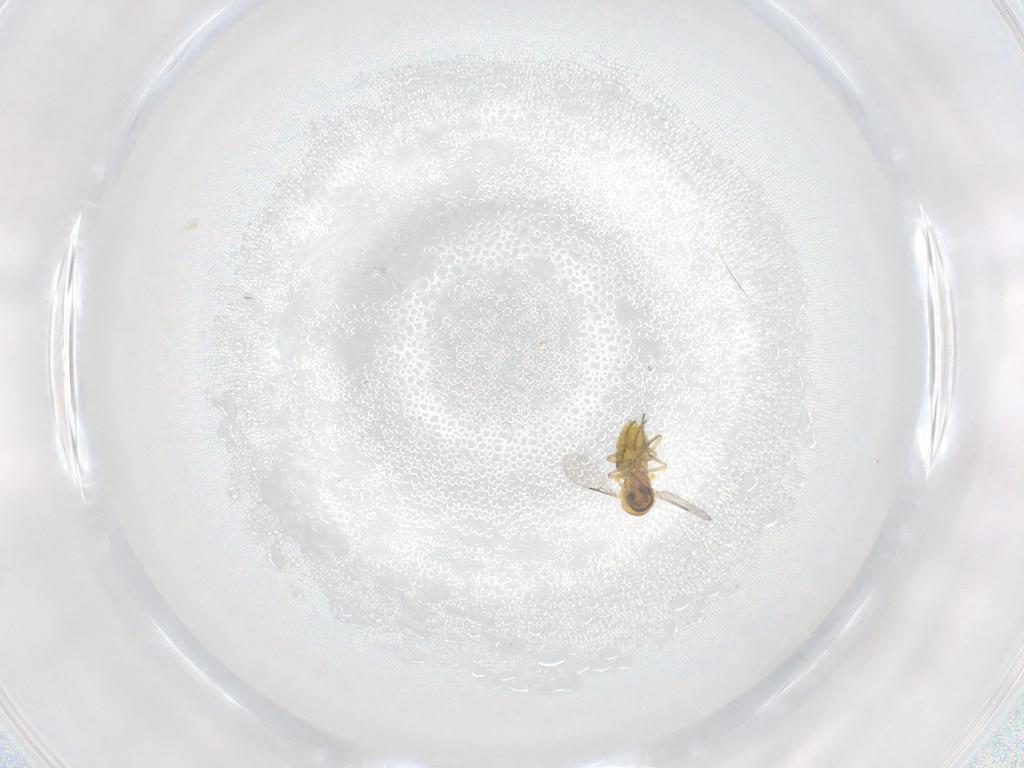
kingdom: Animalia
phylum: Arthropoda
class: Insecta
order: Diptera
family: Ceratopogonidae
